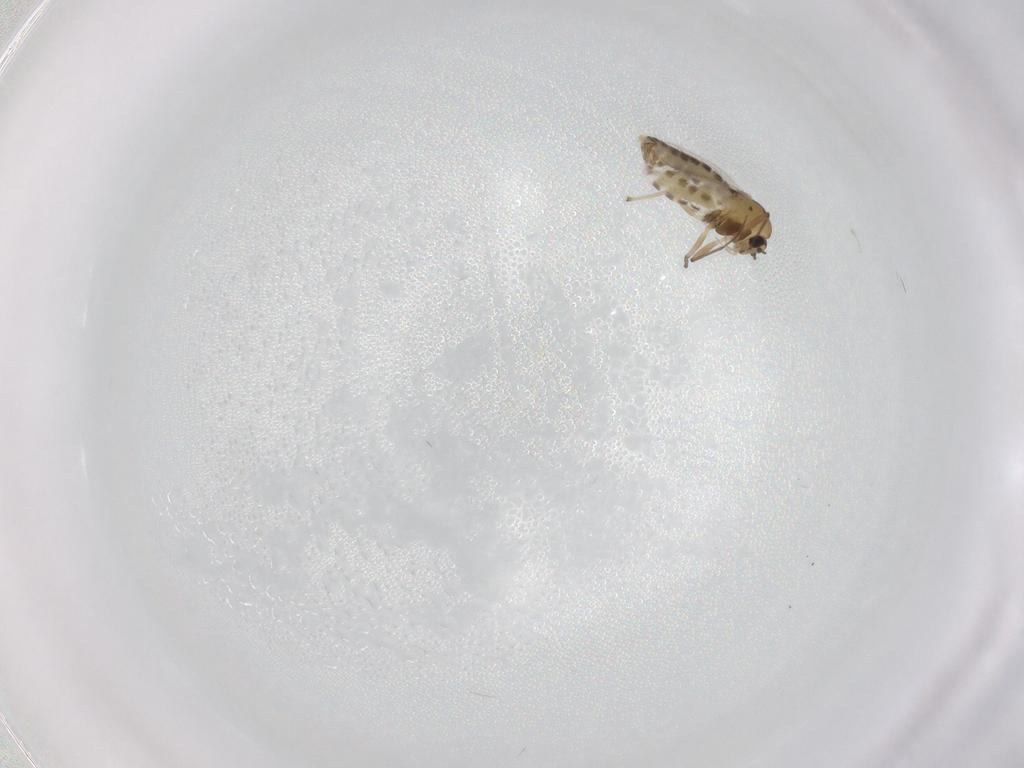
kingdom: Animalia
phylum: Arthropoda
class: Insecta
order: Diptera
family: Chironomidae
